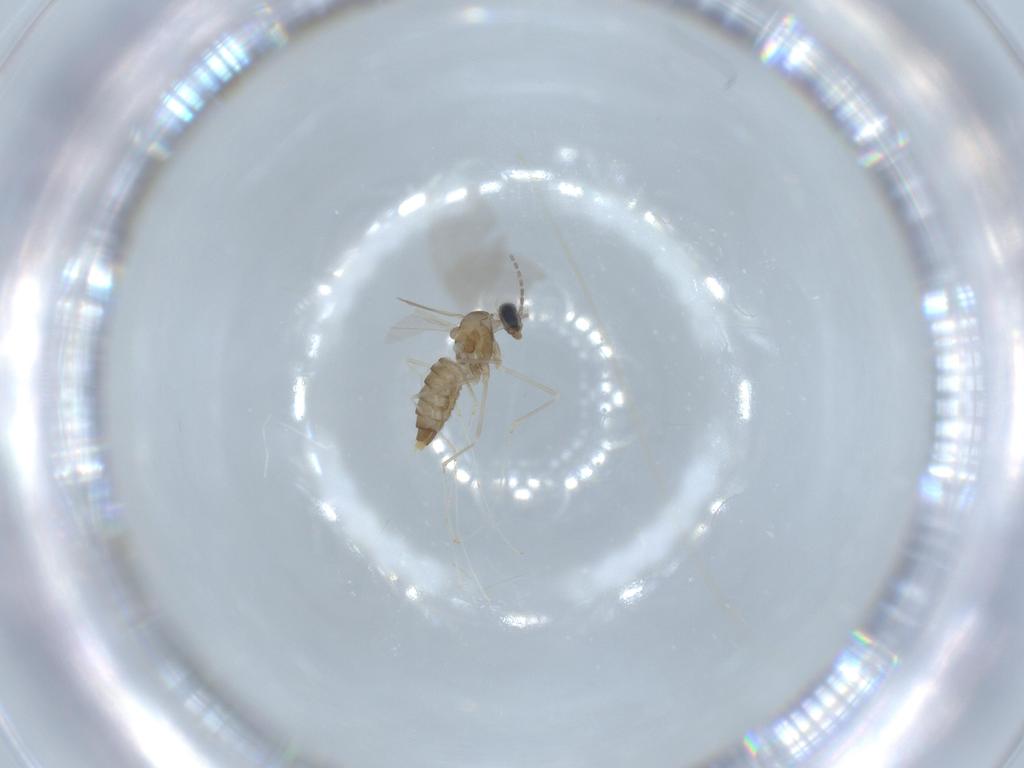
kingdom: Animalia
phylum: Arthropoda
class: Insecta
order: Diptera
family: Cecidomyiidae
